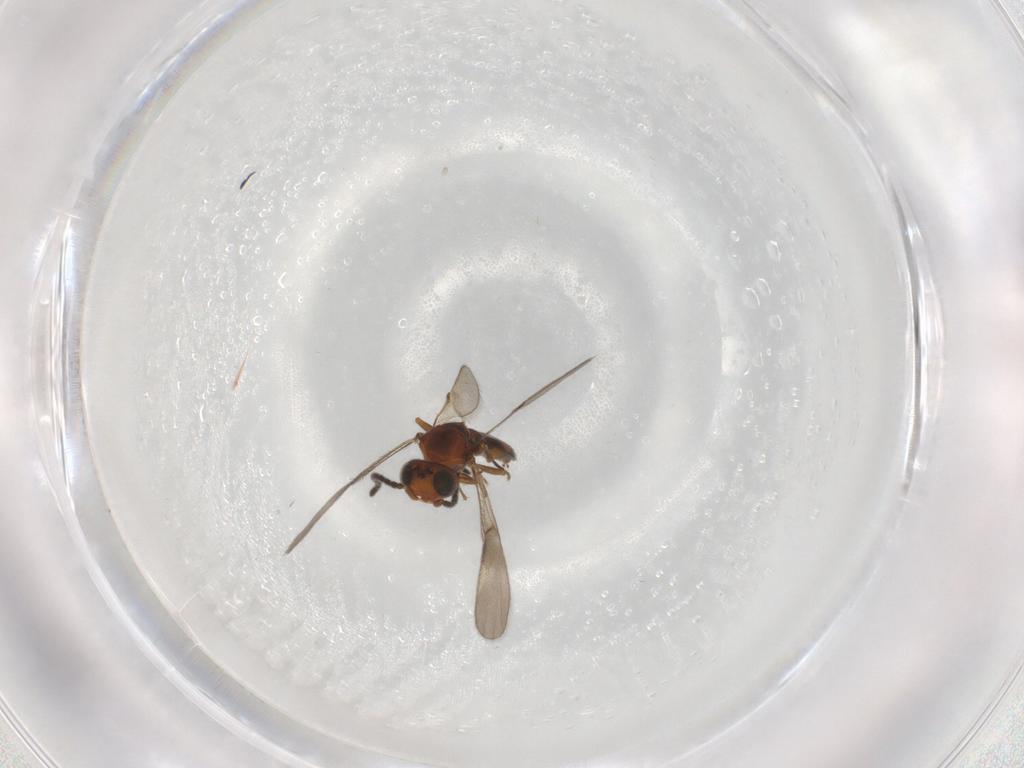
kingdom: Animalia
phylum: Arthropoda
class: Insecta
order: Hymenoptera
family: Scelionidae
